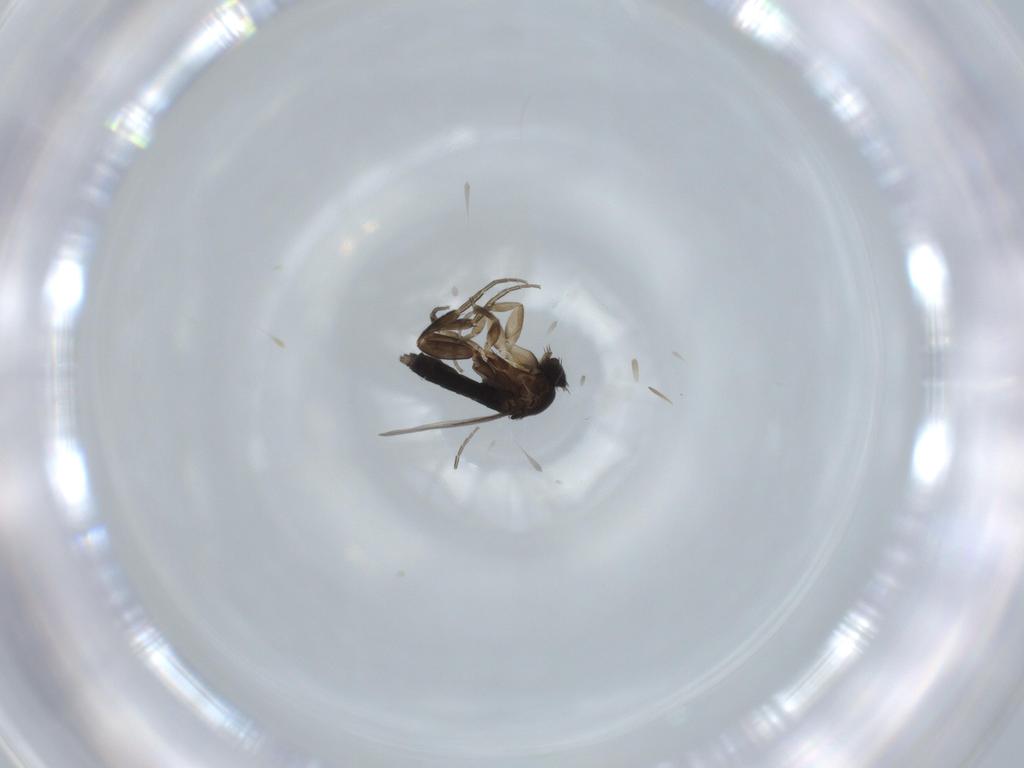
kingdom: Animalia
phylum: Arthropoda
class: Insecta
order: Diptera
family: Phoridae
